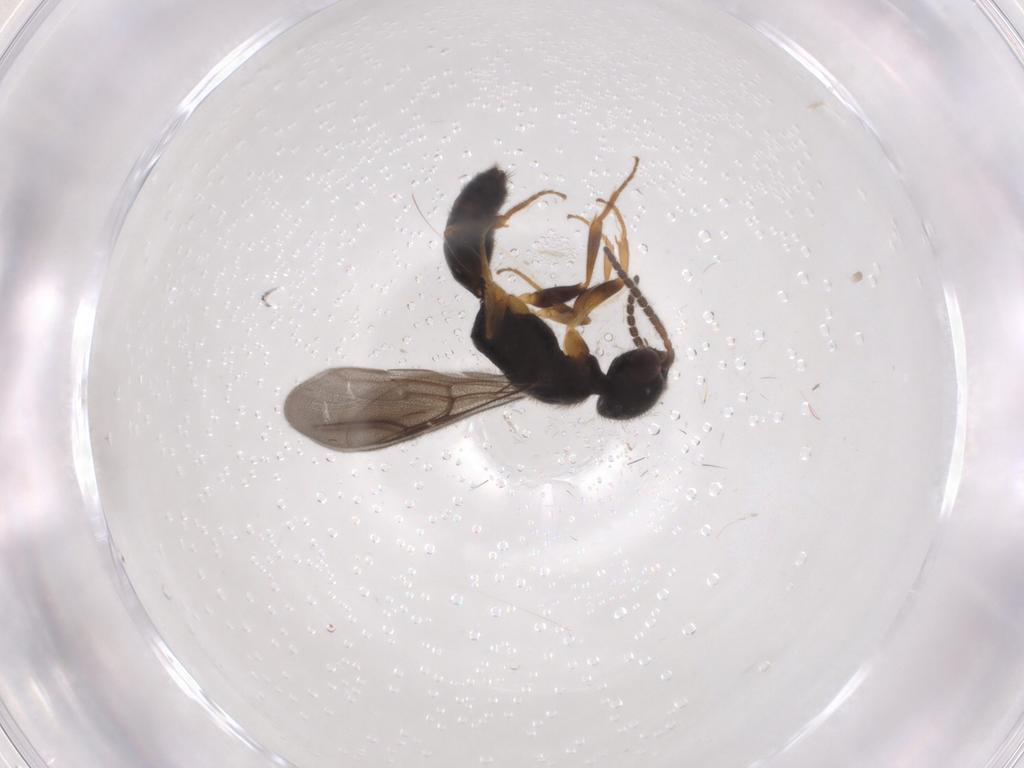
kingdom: Animalia
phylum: Arthropoda
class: Insecta
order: Hymenoptera
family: Bethylidae
